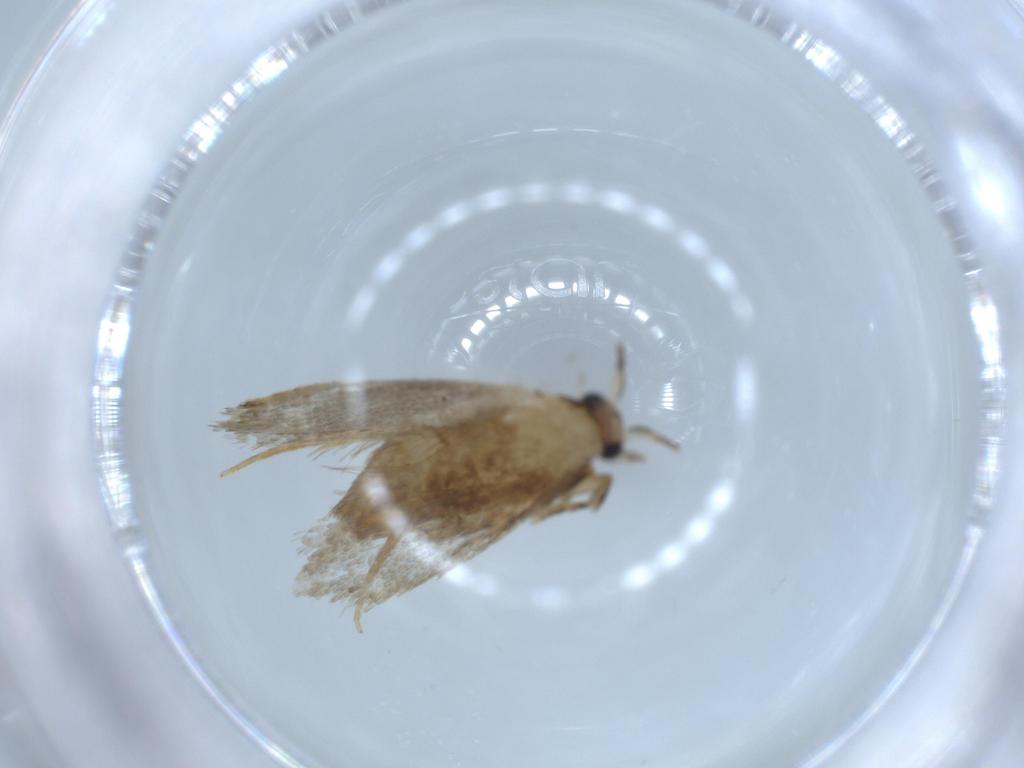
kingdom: Animalia
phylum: Arthropoda
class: Insecta
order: Lepidoptera
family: Tineidae
